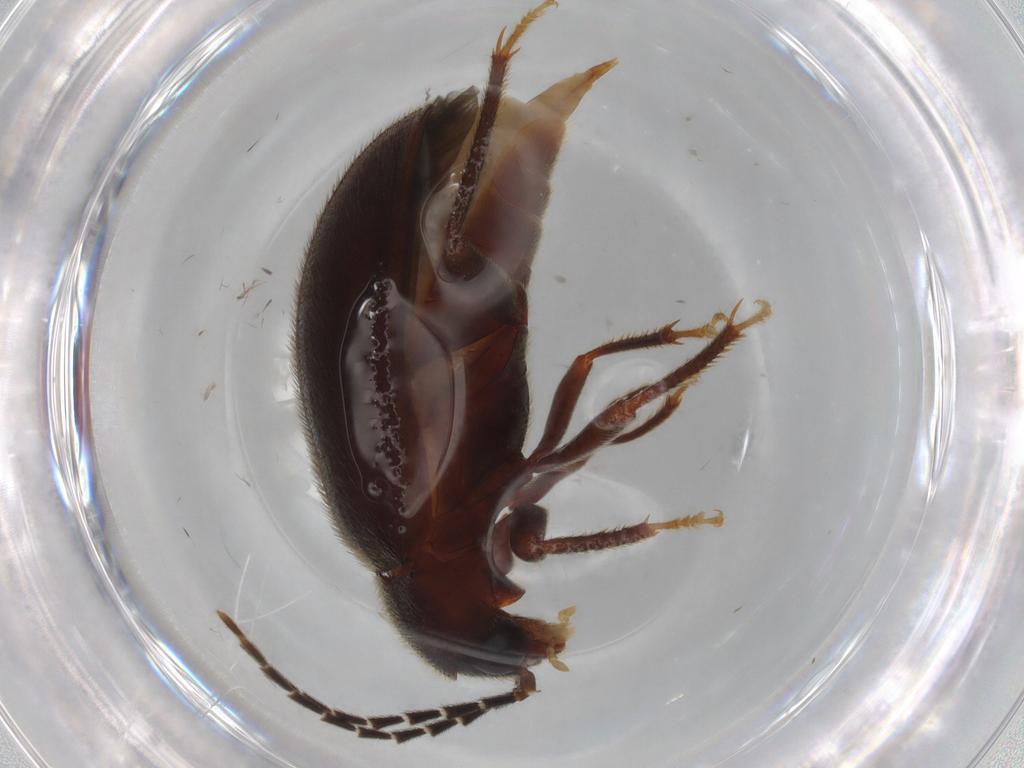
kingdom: Animalia
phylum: Arthropoda
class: Insecta
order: Coleoptera
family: Ptilodactylidae
